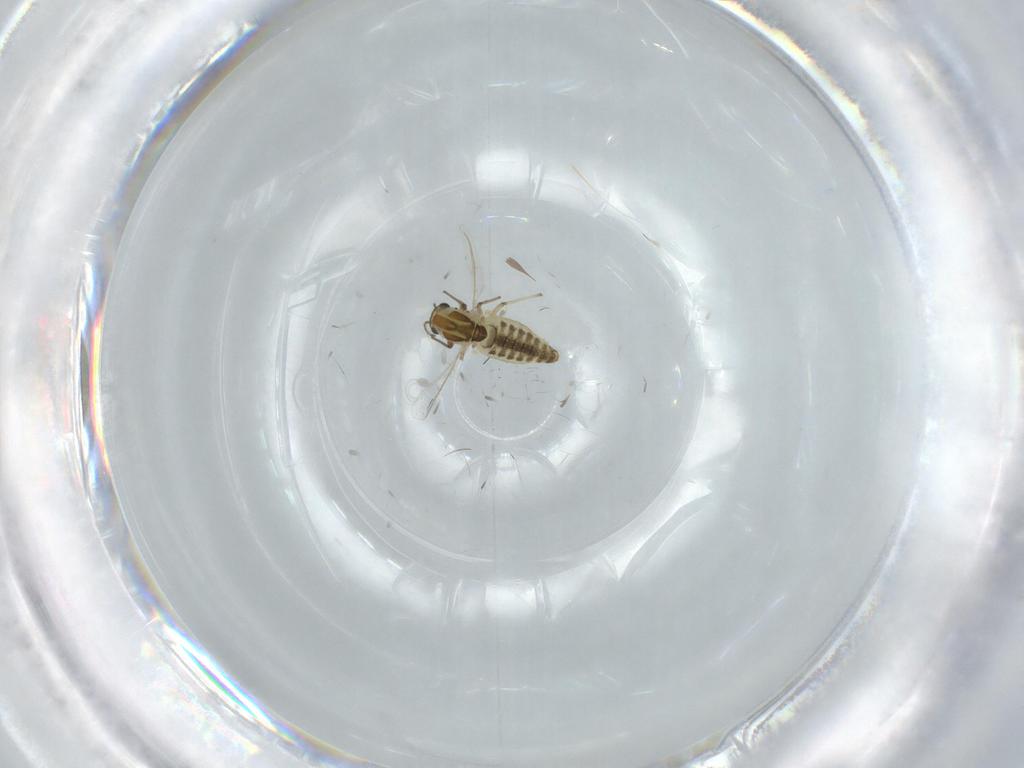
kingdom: Animalia
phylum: Arthropoda
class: Insecta
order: Diptera
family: Chironomidae
